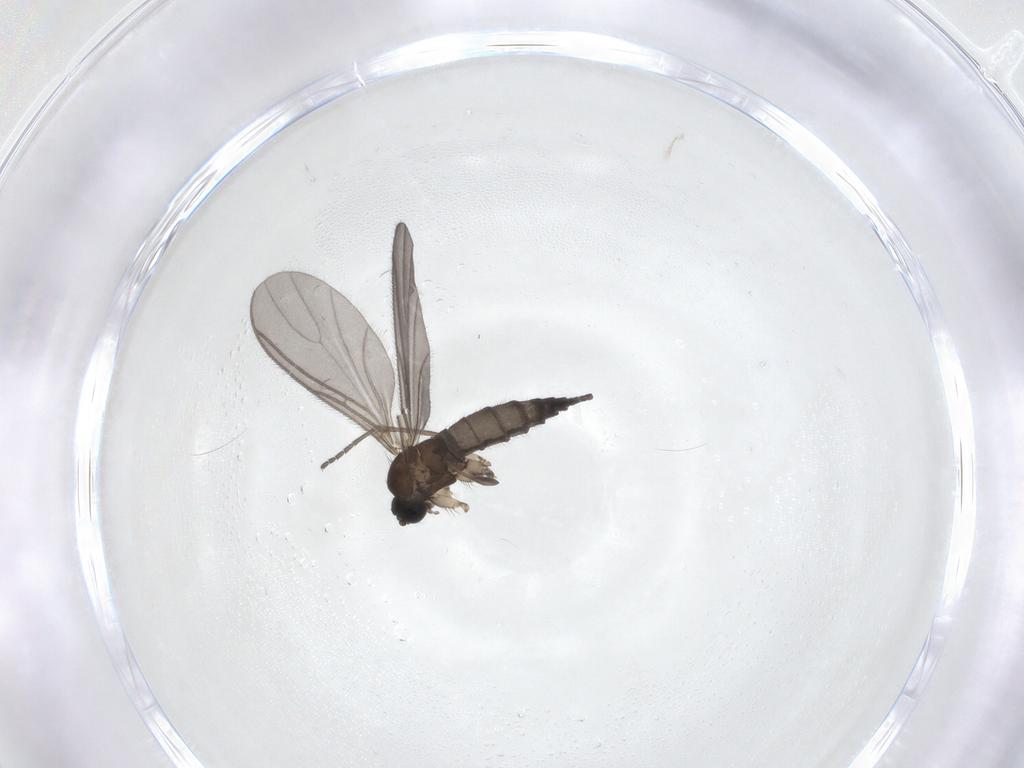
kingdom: Animalia
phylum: Arthropoda
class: Insecta
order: Diptera
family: Sciaridae
